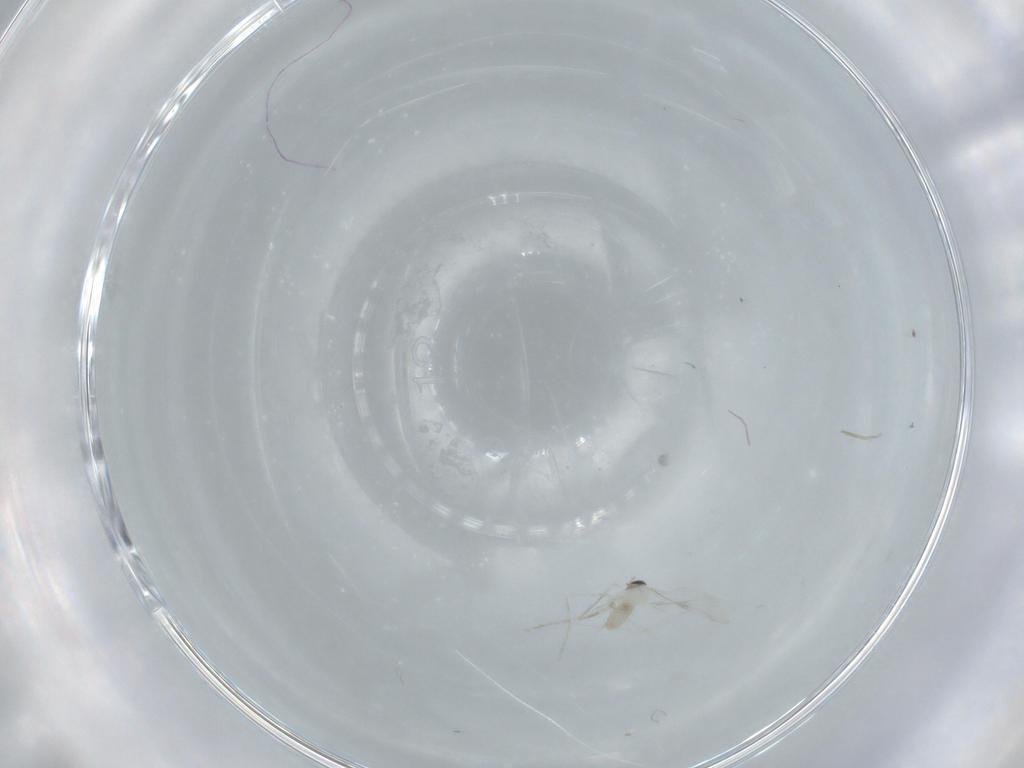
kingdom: Animalia
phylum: Arthropoda
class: Insecta
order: Diptera
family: Cecidomyiidae
